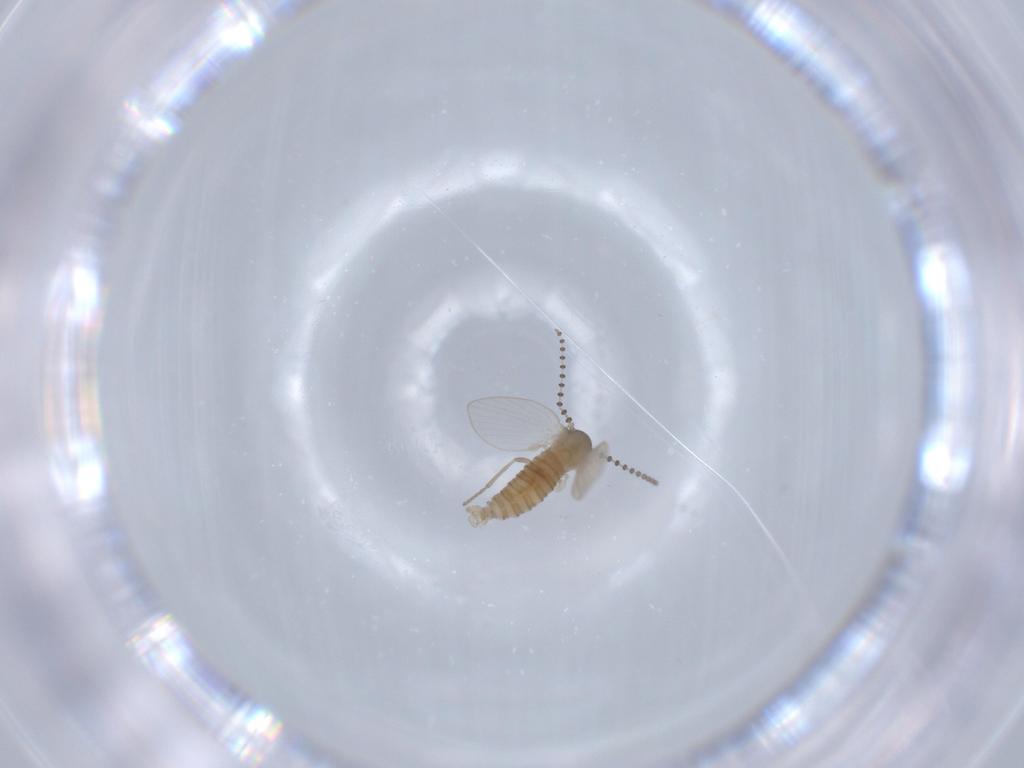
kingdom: Animalia
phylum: Arthropoda
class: Insecta
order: Diptera
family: Psychodidae
